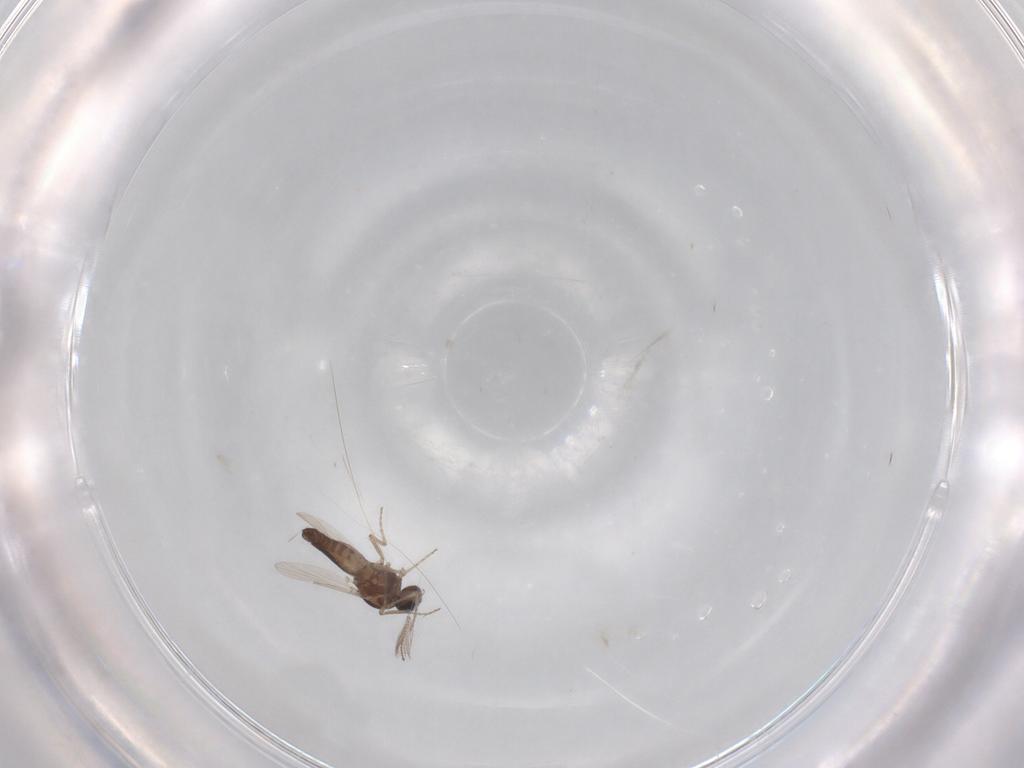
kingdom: Animalia
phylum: Arthropoda
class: Insecta
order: Diptera
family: Ceratopogonidae
